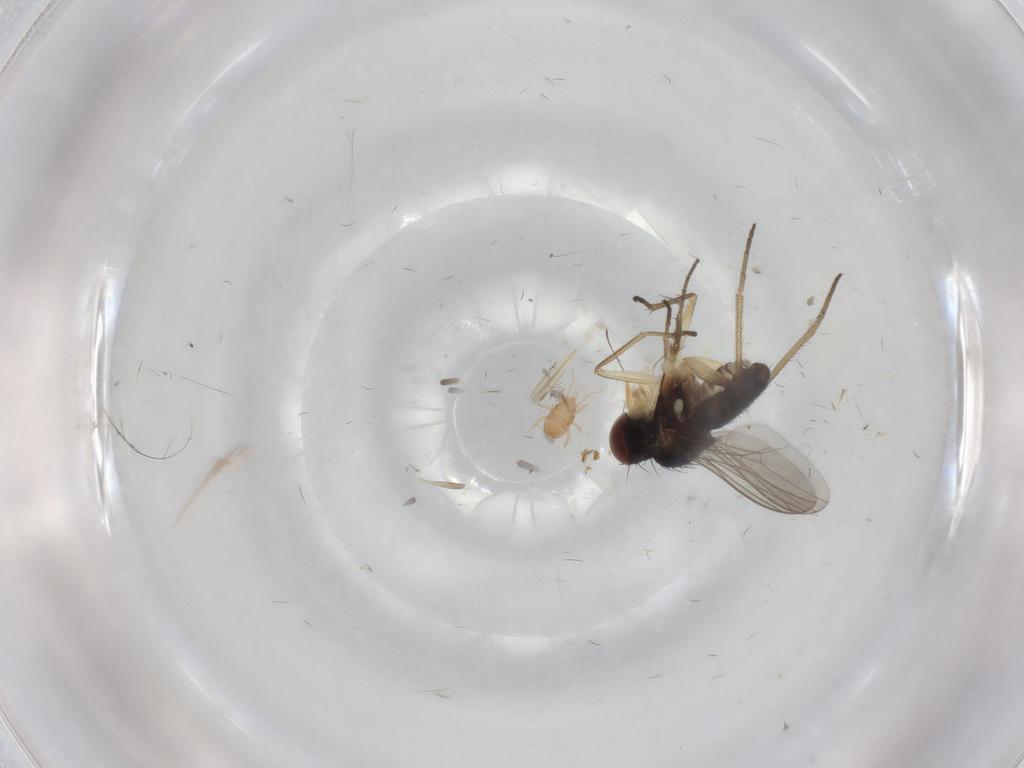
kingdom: Animalia
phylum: Arthropoda
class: Insecta
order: Diptera
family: Dolichopodidae
